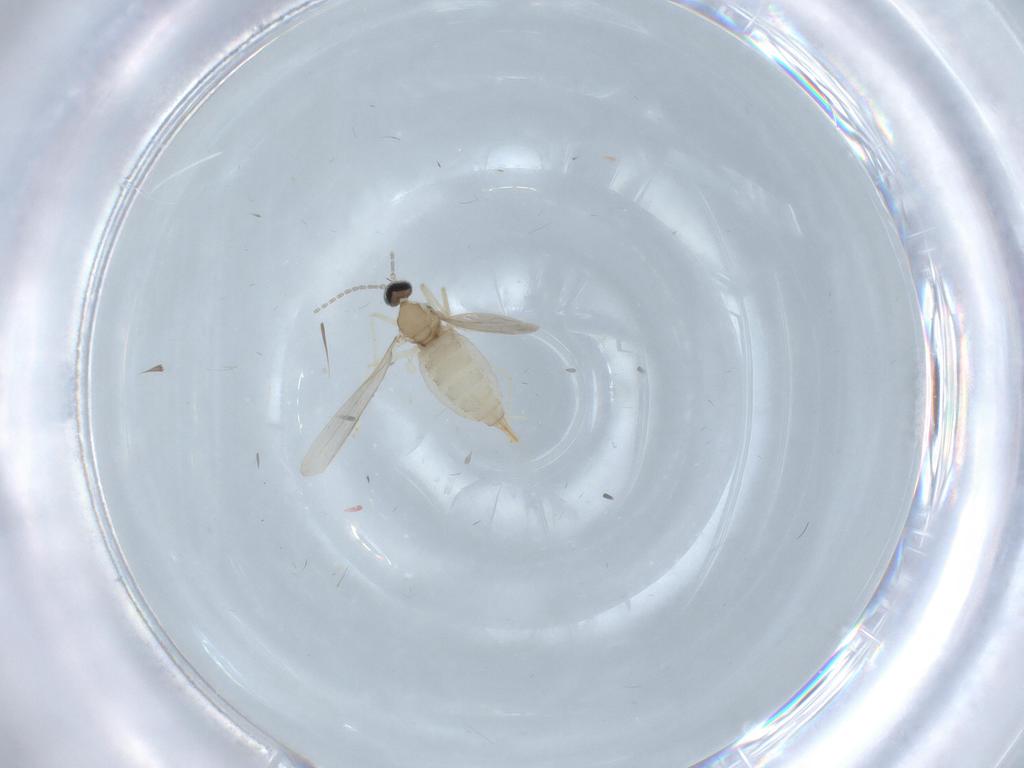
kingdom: Animalia
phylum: Arthropoda
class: Insecta
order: Diptera
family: Cecidomyiidae
